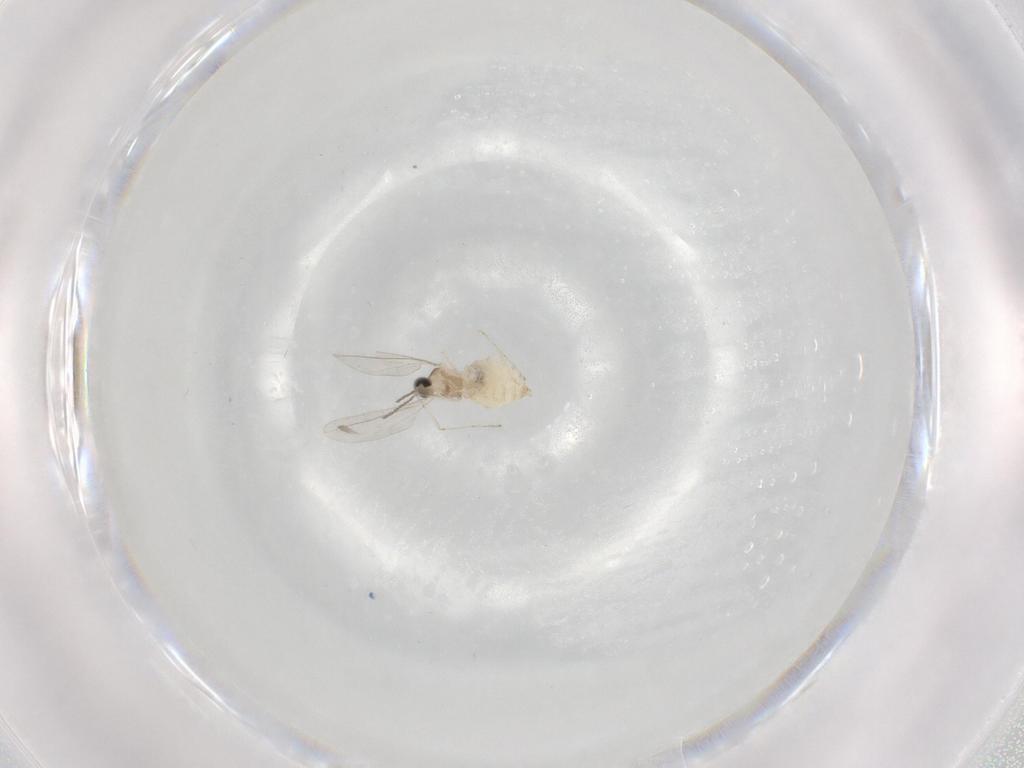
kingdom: Animalia
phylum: Arthropoda
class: Insecta
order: Diptera
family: Cecidomyiidae
